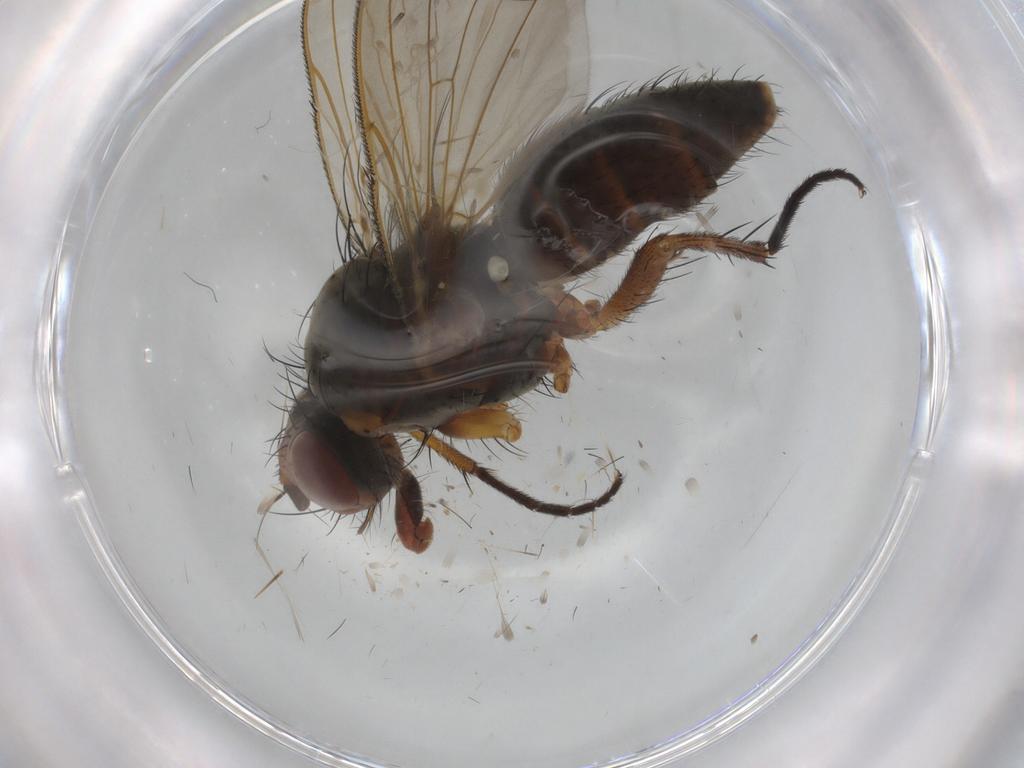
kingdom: Animalia
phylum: Arthropoda
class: Insecta
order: Diptera
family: Anthomyiidae
